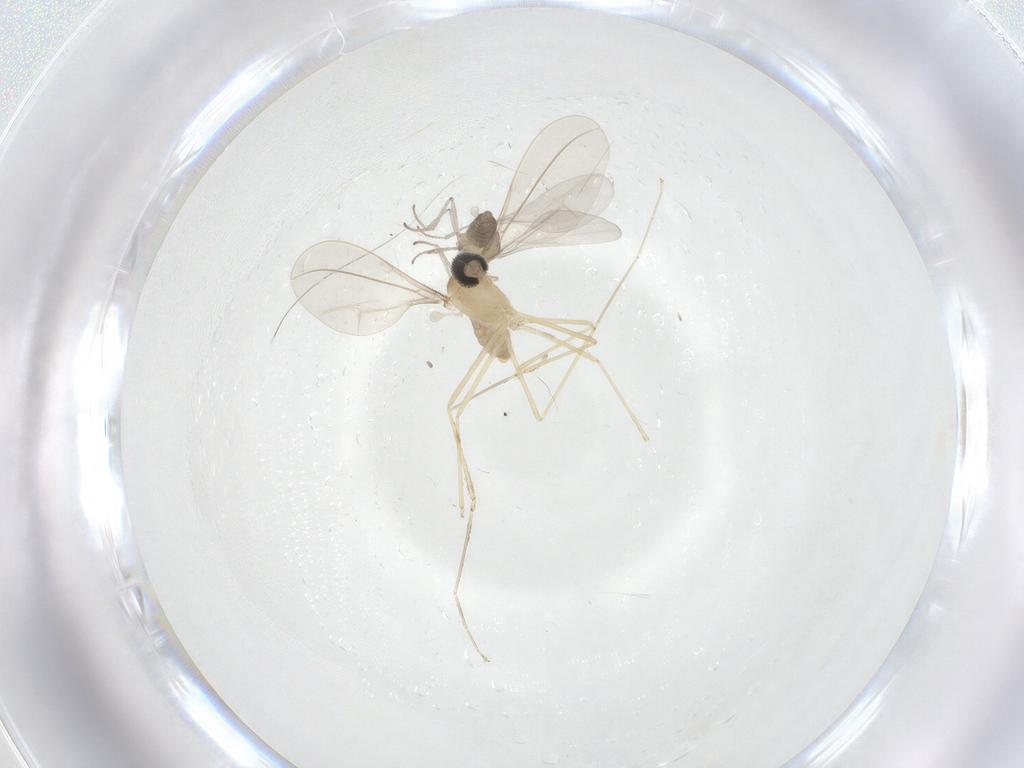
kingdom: Animalia
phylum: Arthropoda
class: Insecta
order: Diptera
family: Cecidomyiidae
